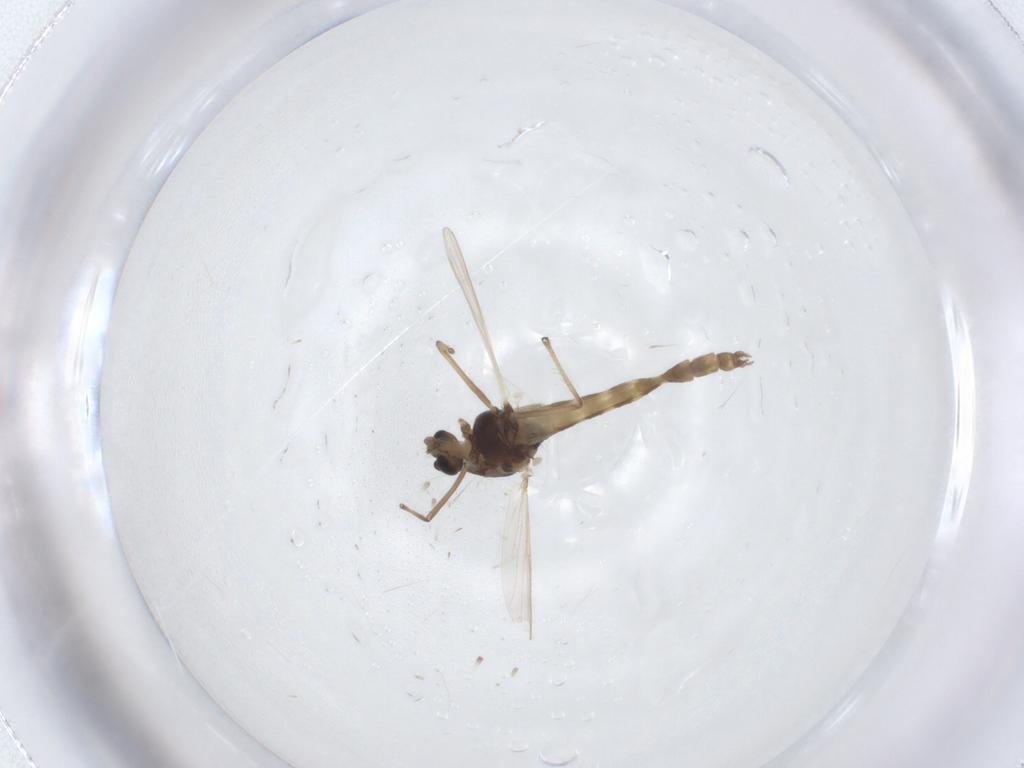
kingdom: Animalia
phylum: Arthropoda
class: Insecta
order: Diptera
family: Chironomidae
